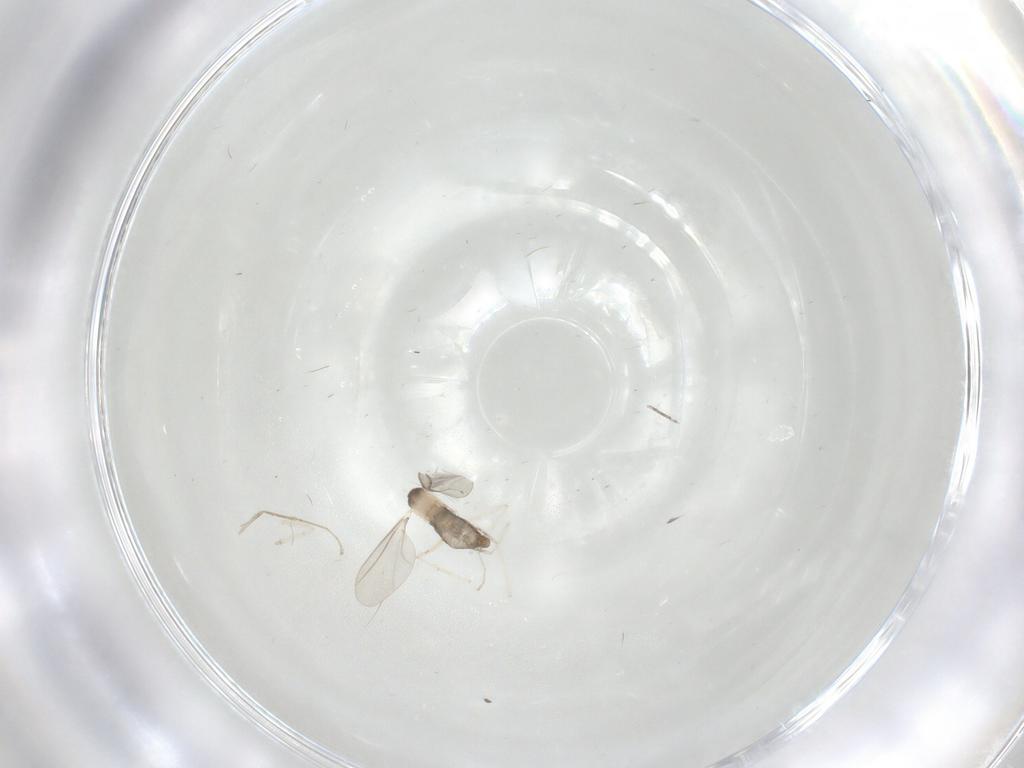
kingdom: Animalia
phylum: Arthropoda
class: Insecta
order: Diptera
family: Cecidomyiidae
